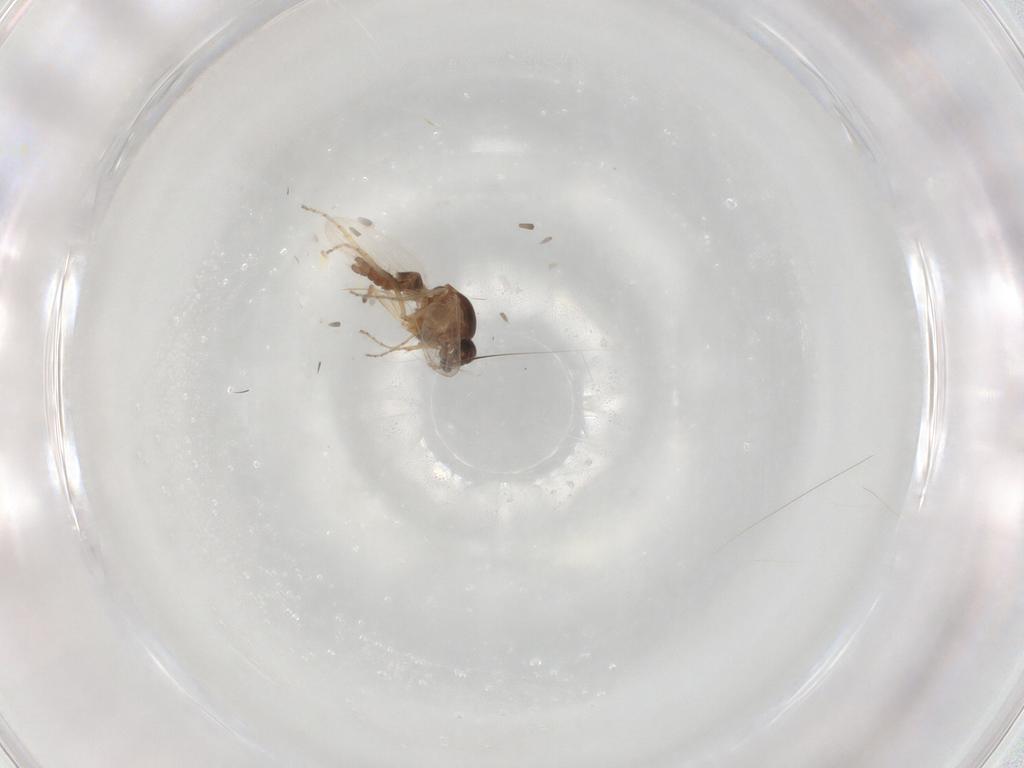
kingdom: Animalia
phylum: Arthropoda
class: Insecta
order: Diptera
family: Ceratopogonidae
